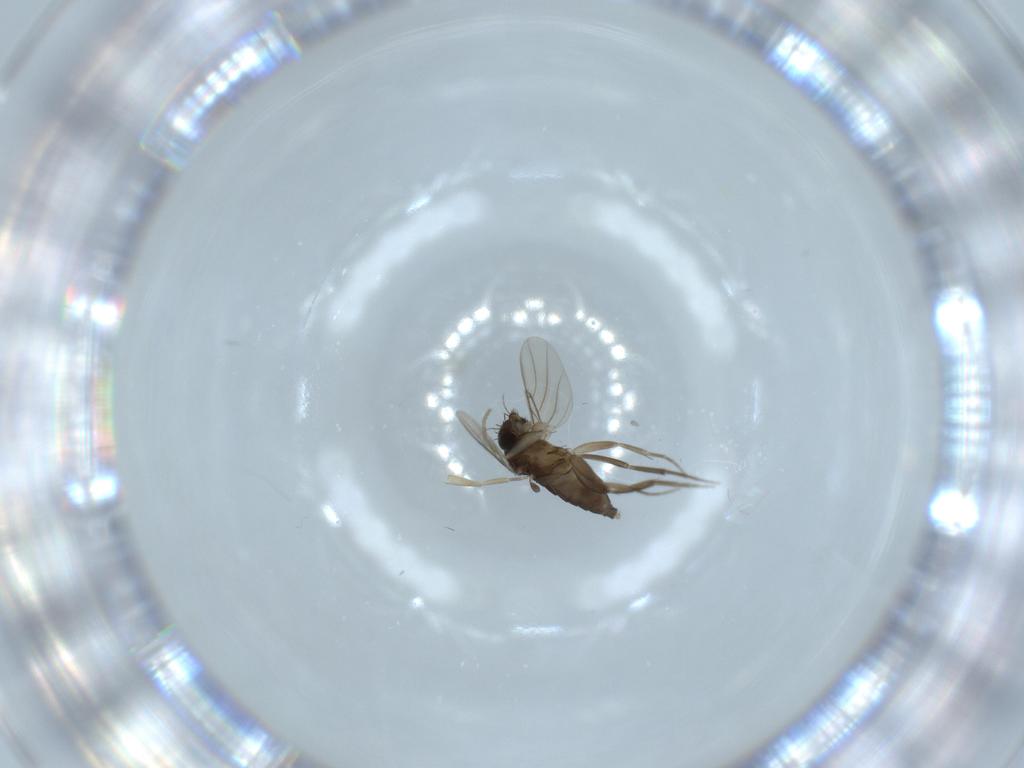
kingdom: Animalia
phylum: Arthropoda
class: Insecta
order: Diptera
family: Phoridae
